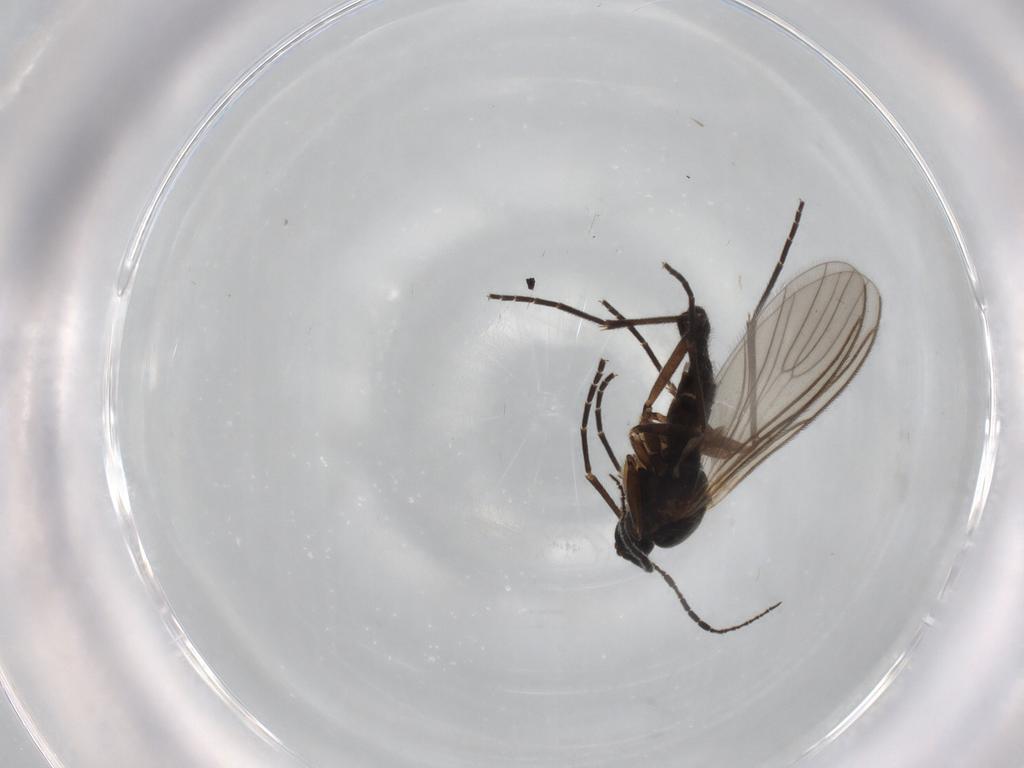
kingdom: Animalia
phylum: Arthropoda
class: Insecta
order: Diptera
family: Sciaridae
